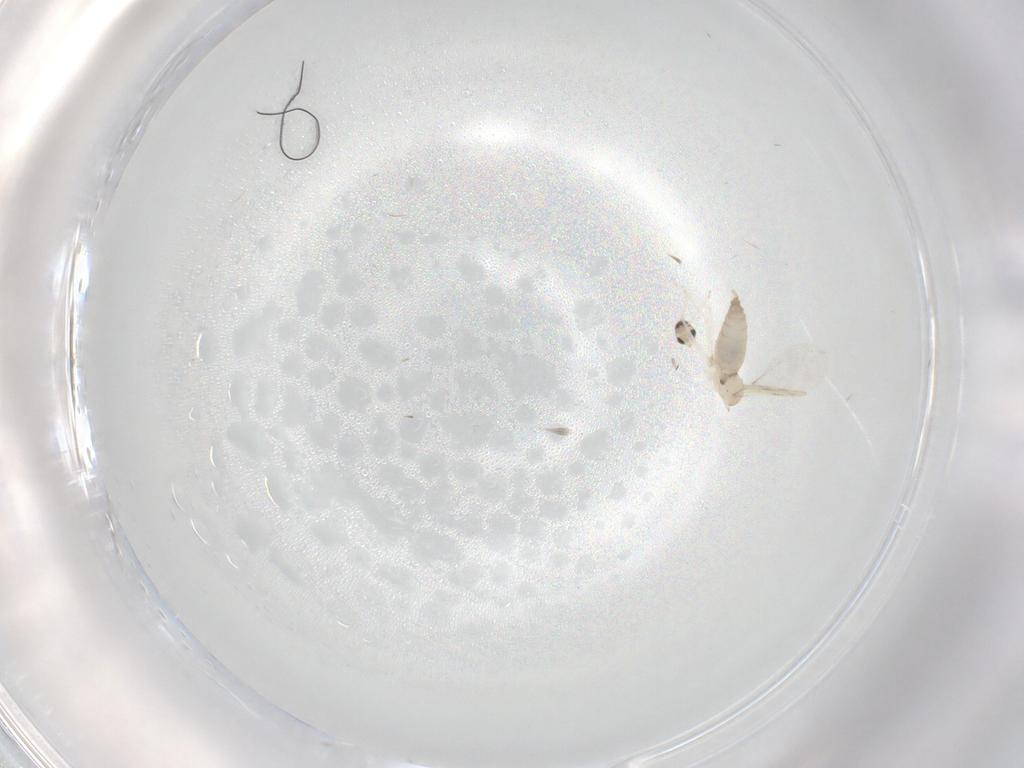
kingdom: Animalia
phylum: Arthropoda
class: Insecta
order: Diptera
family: Cecidomyiidae
